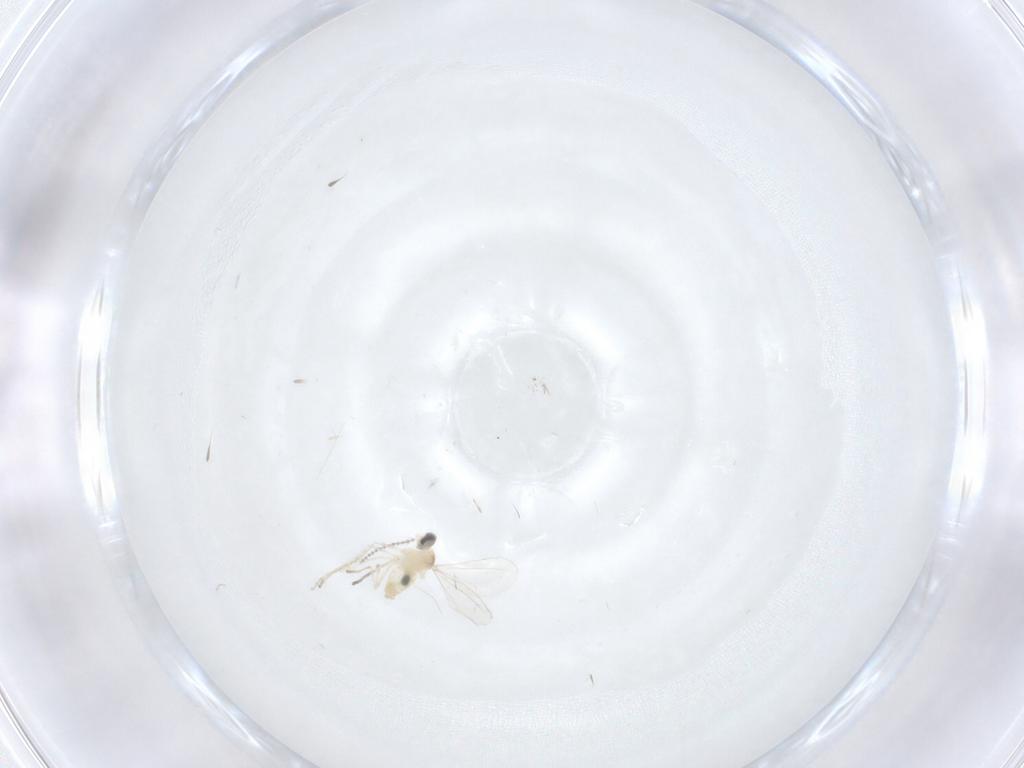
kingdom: Animalia
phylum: Arthropoda
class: Insecta
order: Diptera
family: Cecidomyiidae
